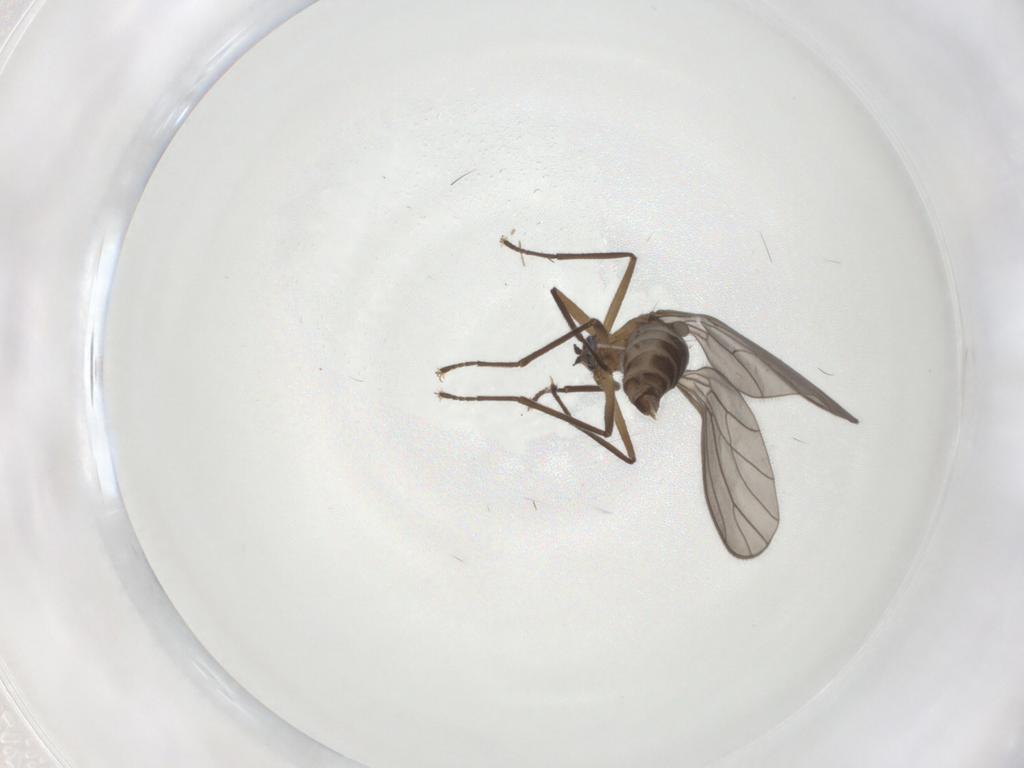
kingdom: Animalia
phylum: Arthropoda
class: Insecta
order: Diptera
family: Empididae
